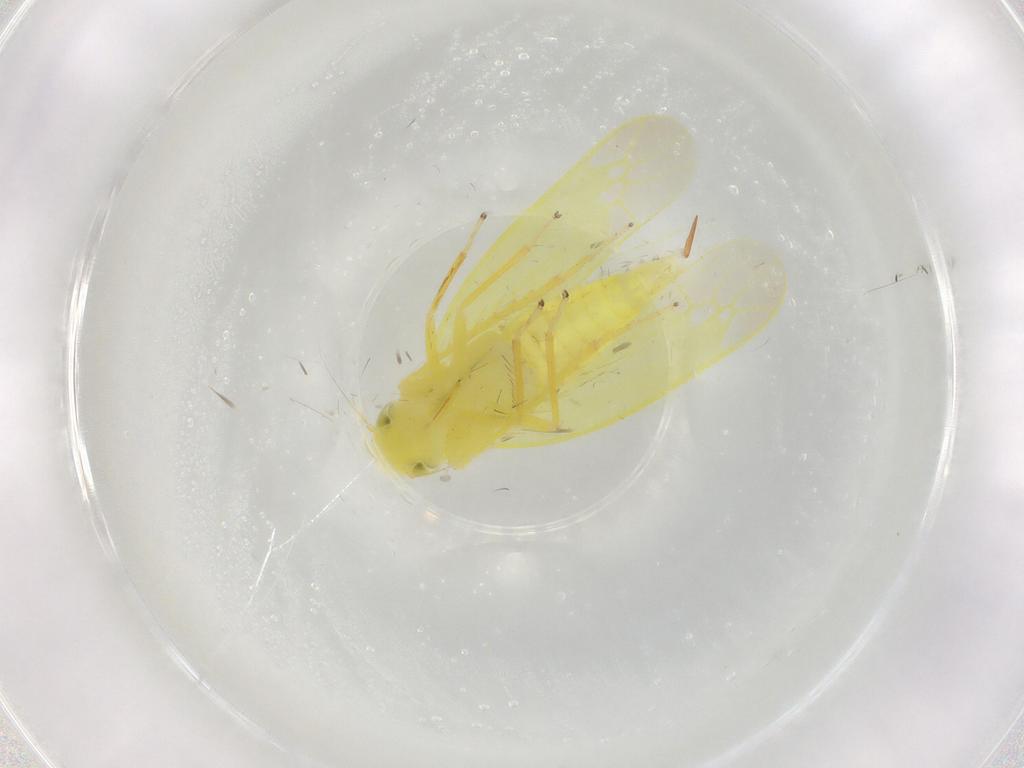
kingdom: Animalia
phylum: Arthropoda
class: Insecta
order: Hemiptera
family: Cicadellidae
